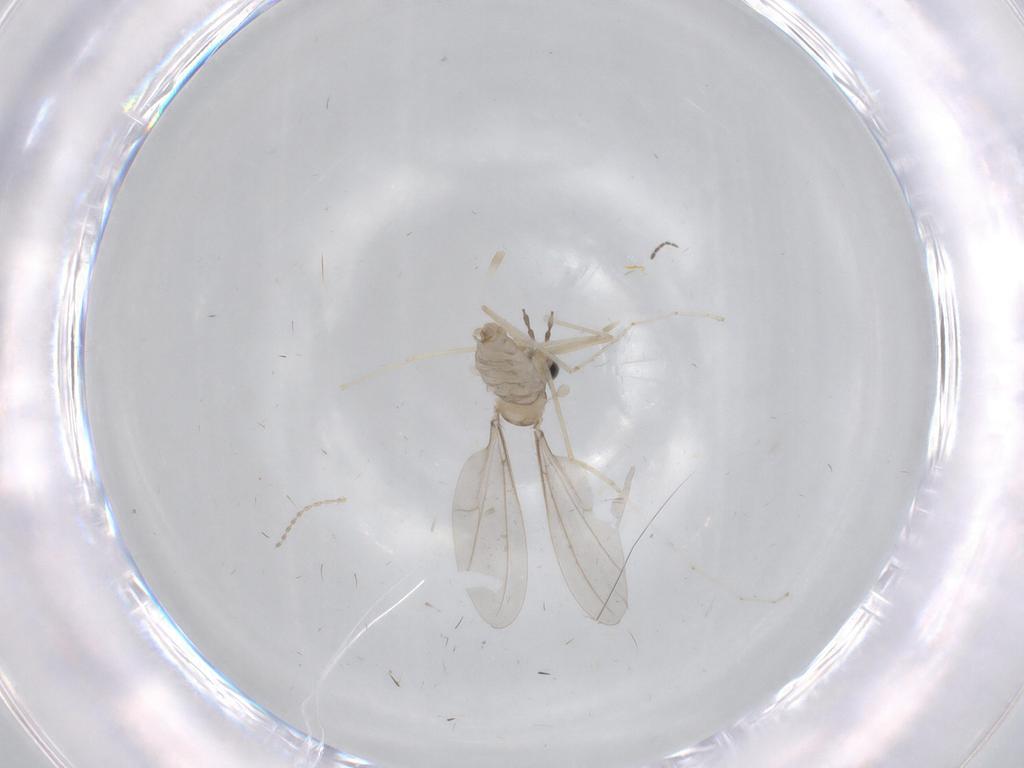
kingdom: Animalia
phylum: Arthropoda
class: Insecta
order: Diptera
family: Cecidomyiidae
